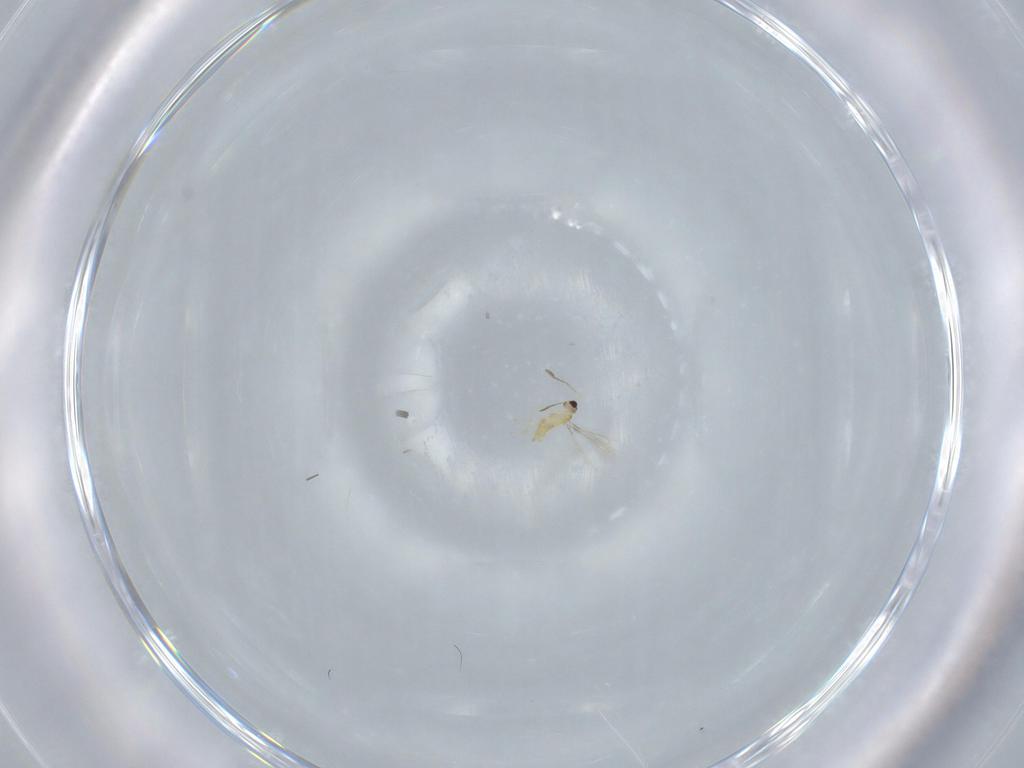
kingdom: Animalia
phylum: Arthropoda
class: Insecta
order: Hymenoptera
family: Mymaridae
